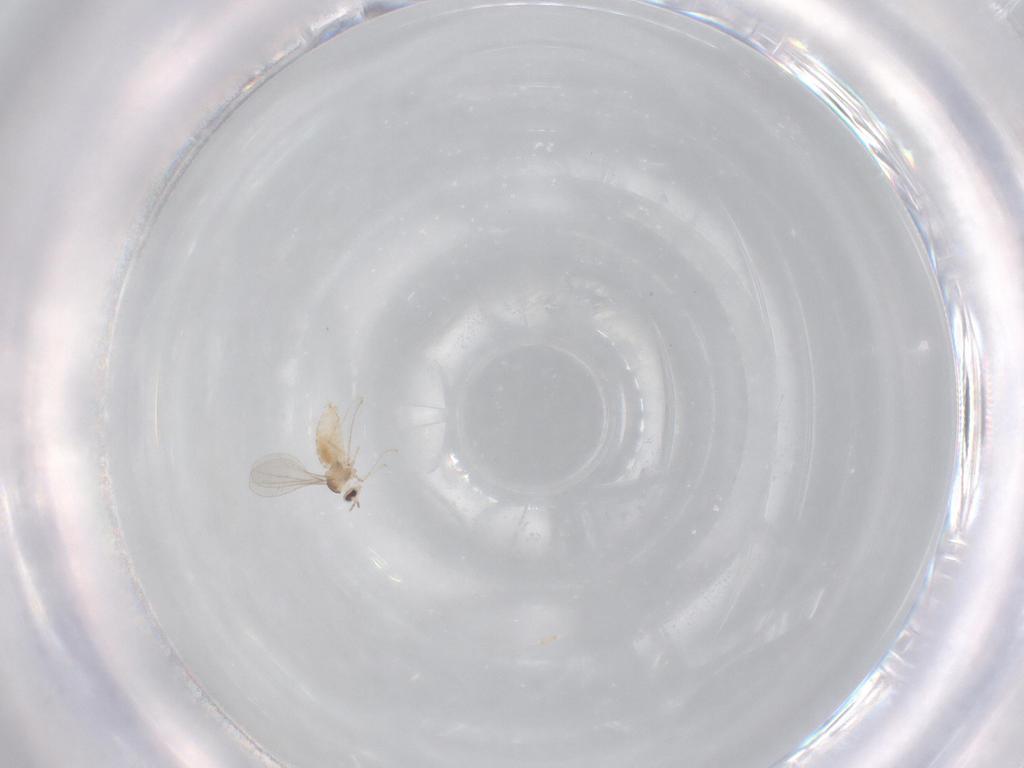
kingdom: Animalia
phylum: Arthropoda
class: Insecta
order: Diptera
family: Cecidomyiidae
